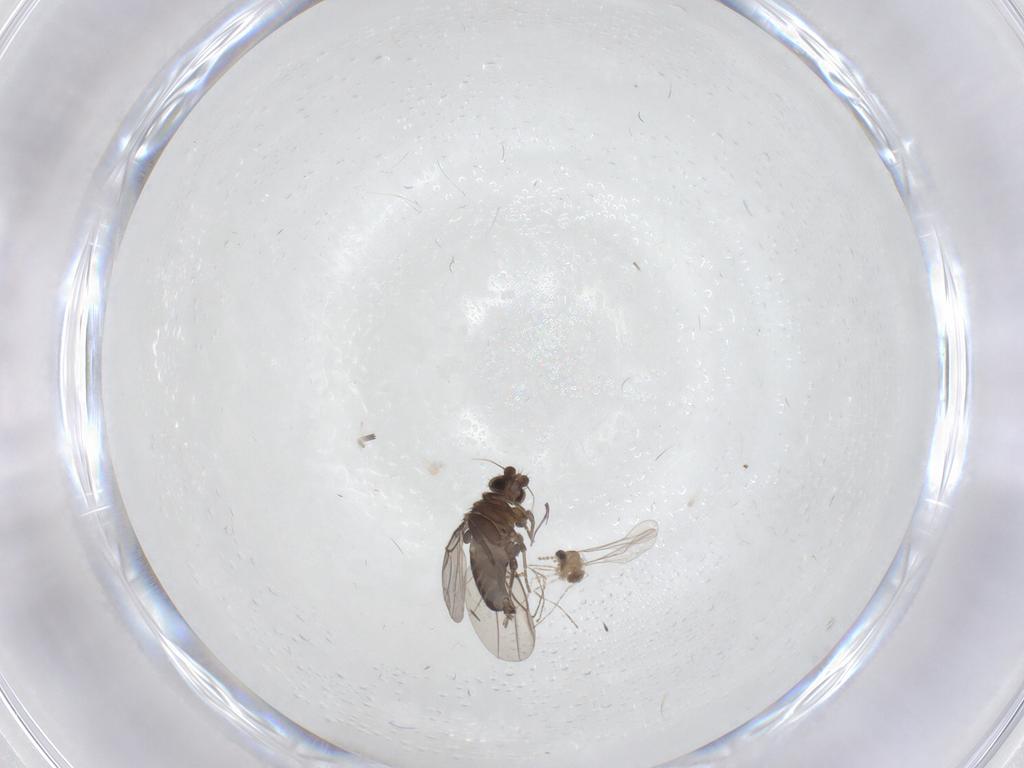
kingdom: Animalia
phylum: Arthropoda
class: Insecta
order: Diptera
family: Phoridae
